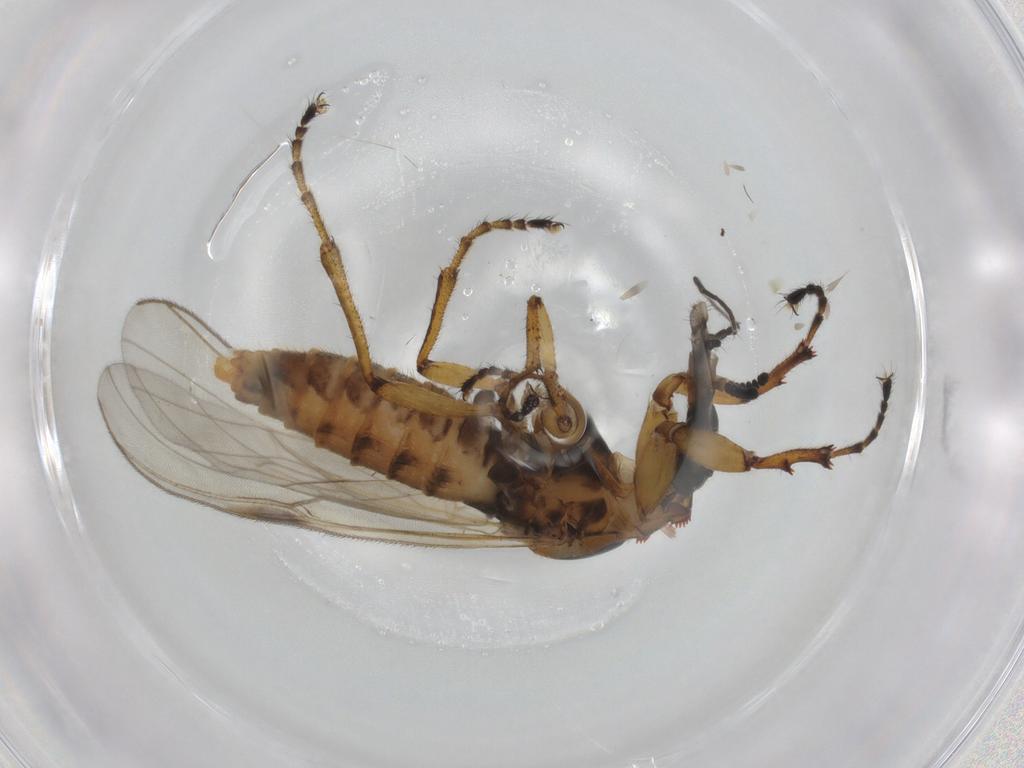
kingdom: Animalia
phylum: Arthropoda
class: Insecta
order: Diptera
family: Bibionidae
